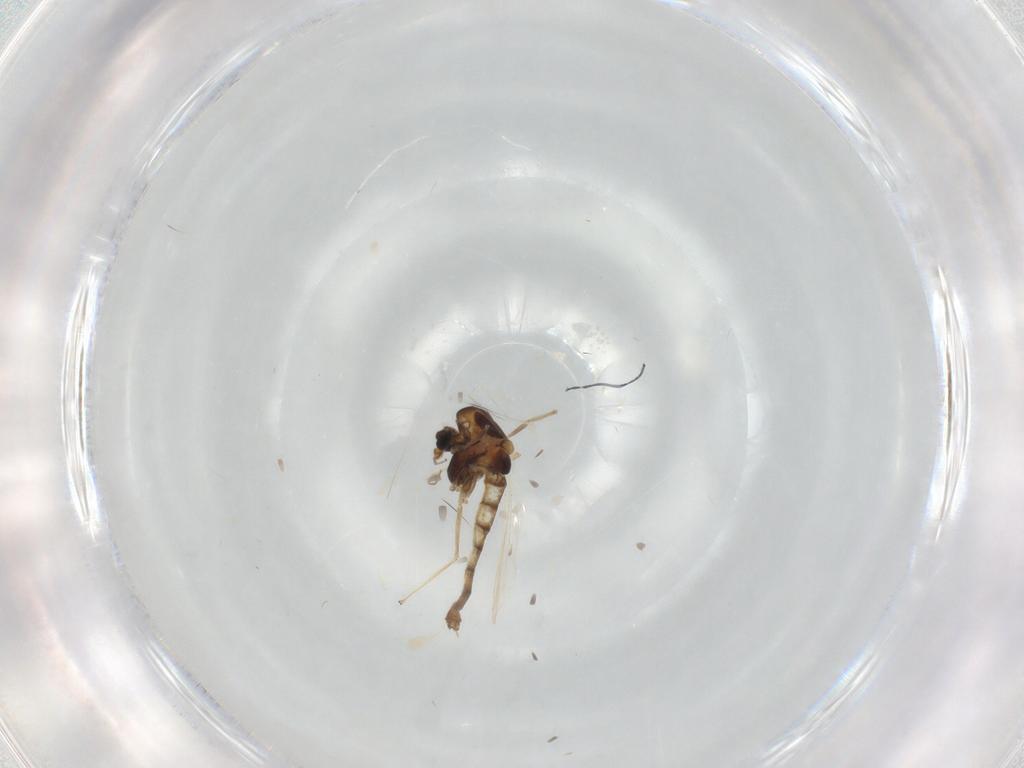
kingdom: Animalia
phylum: Arthropoda
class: Insecta
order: Diptera
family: Chironomidae
